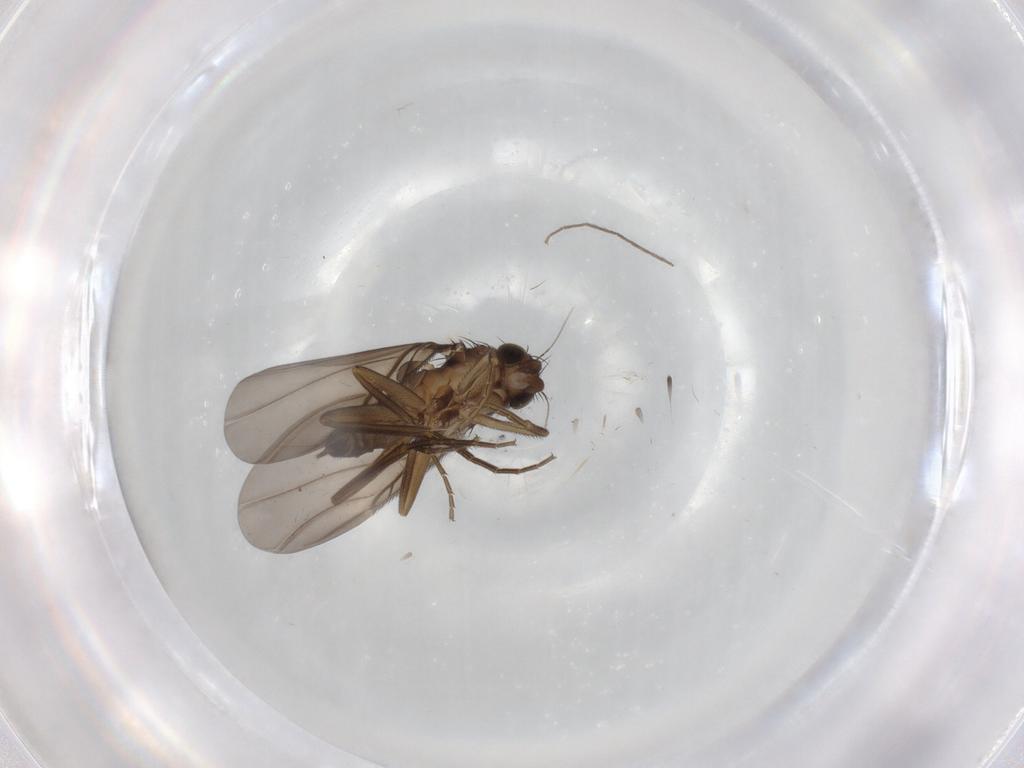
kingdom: Animalia
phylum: Arthropoda
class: Insecta
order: Diptera
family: Phoridae
